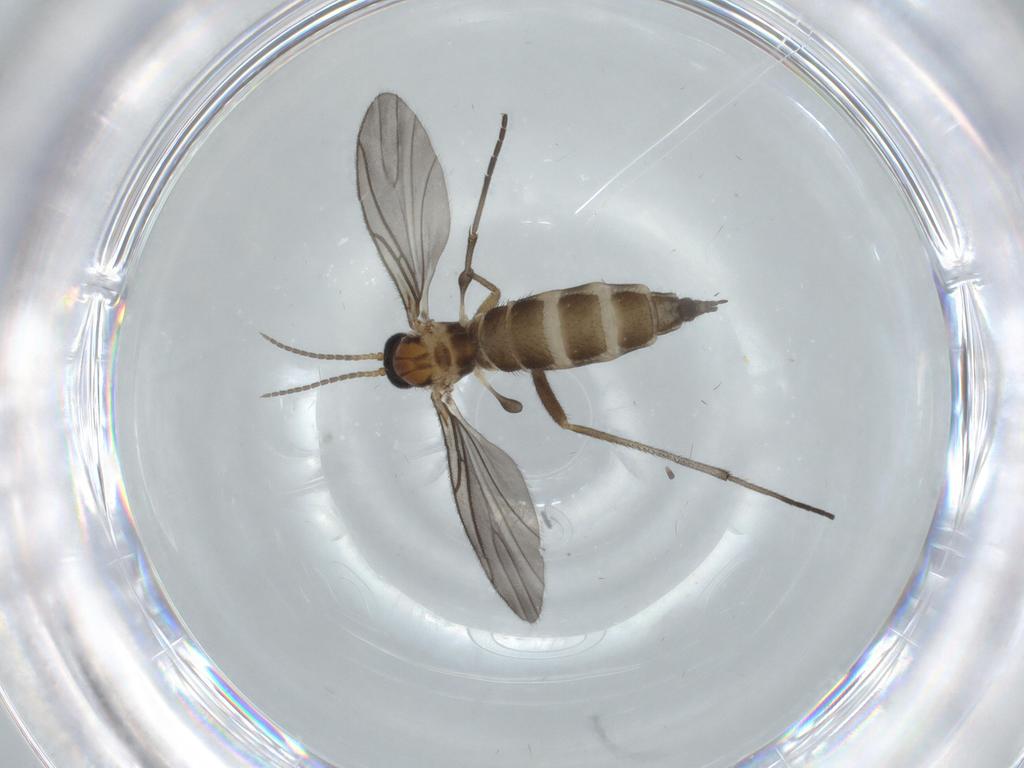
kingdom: Animalia
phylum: Arthropoda
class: Insecta
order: Diptera
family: Sciaridae
